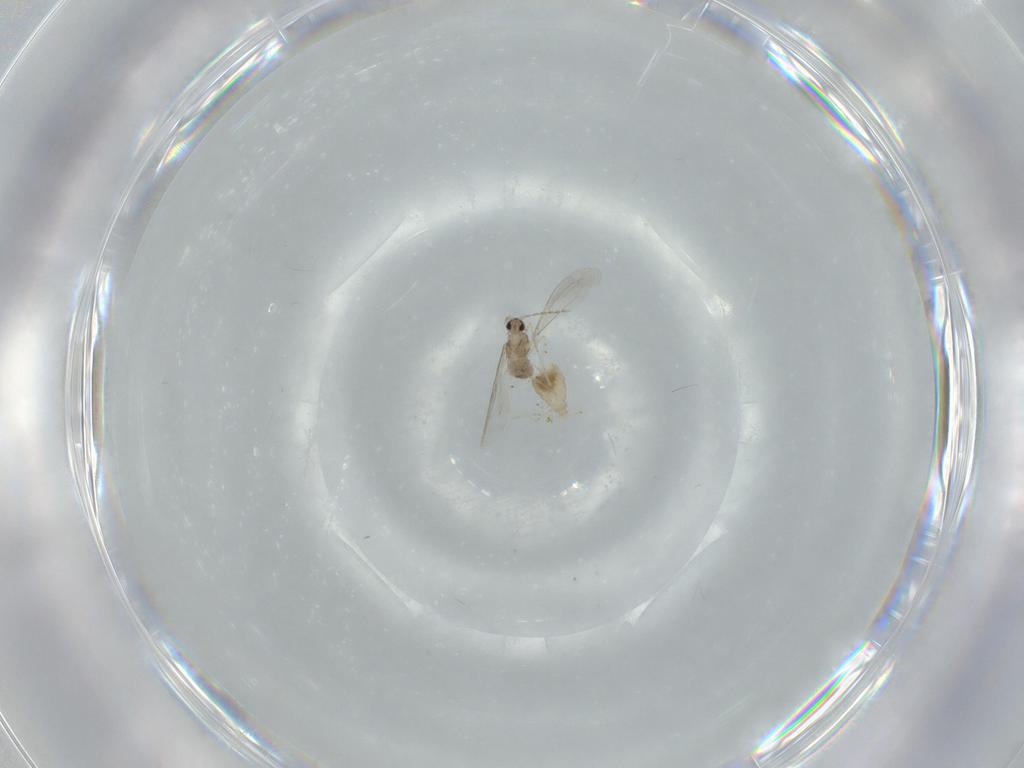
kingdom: Animalia
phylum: Arthropoda
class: Insecta
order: Diptera
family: Cecidomyiidae
